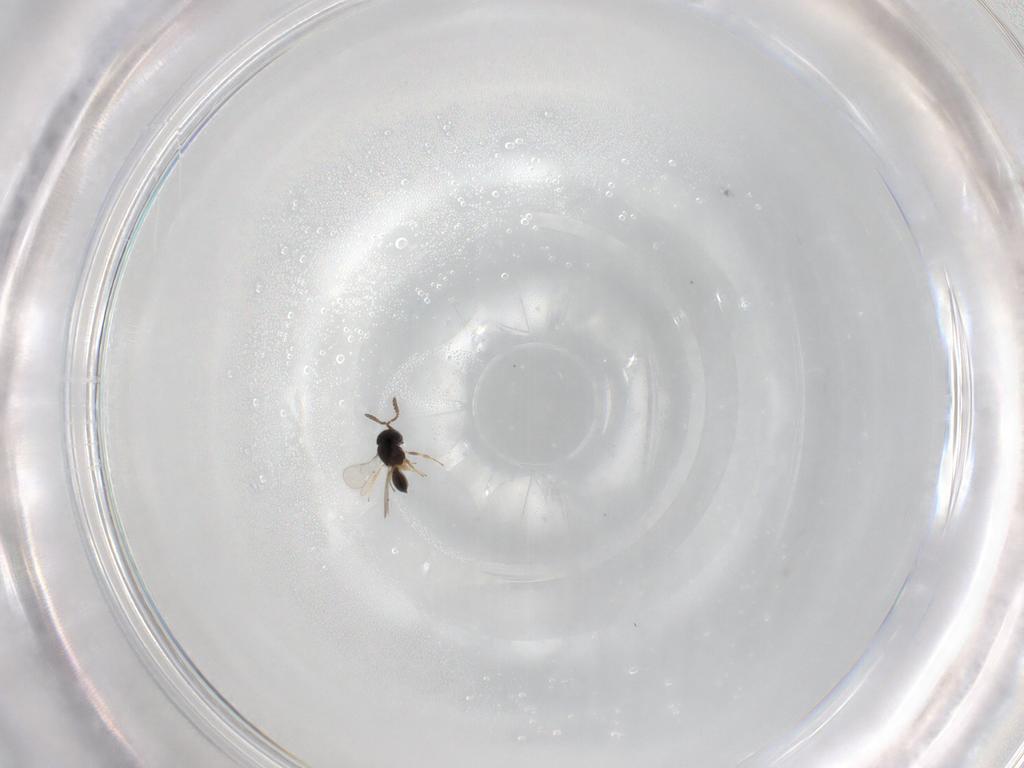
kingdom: Animalia
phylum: Arthropoda
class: Insecta
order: Hymenoptera
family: Scelionidae
